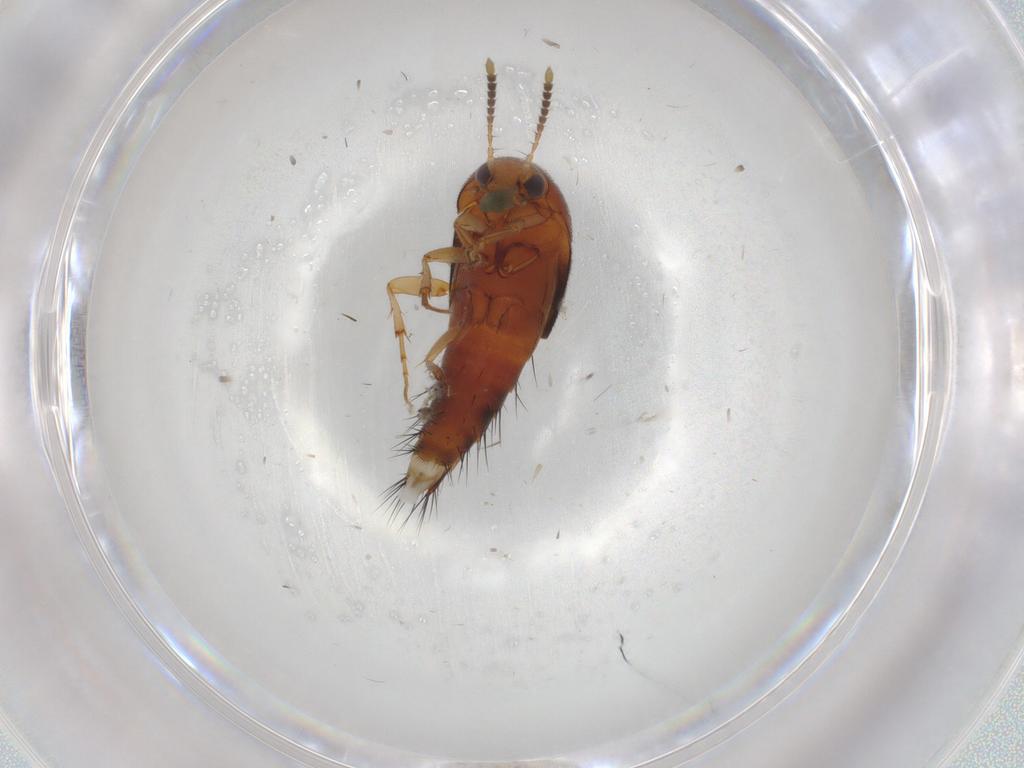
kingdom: Animalia
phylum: Arthropoda
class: Insecta
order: Coleoptera
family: Staphylinidae
